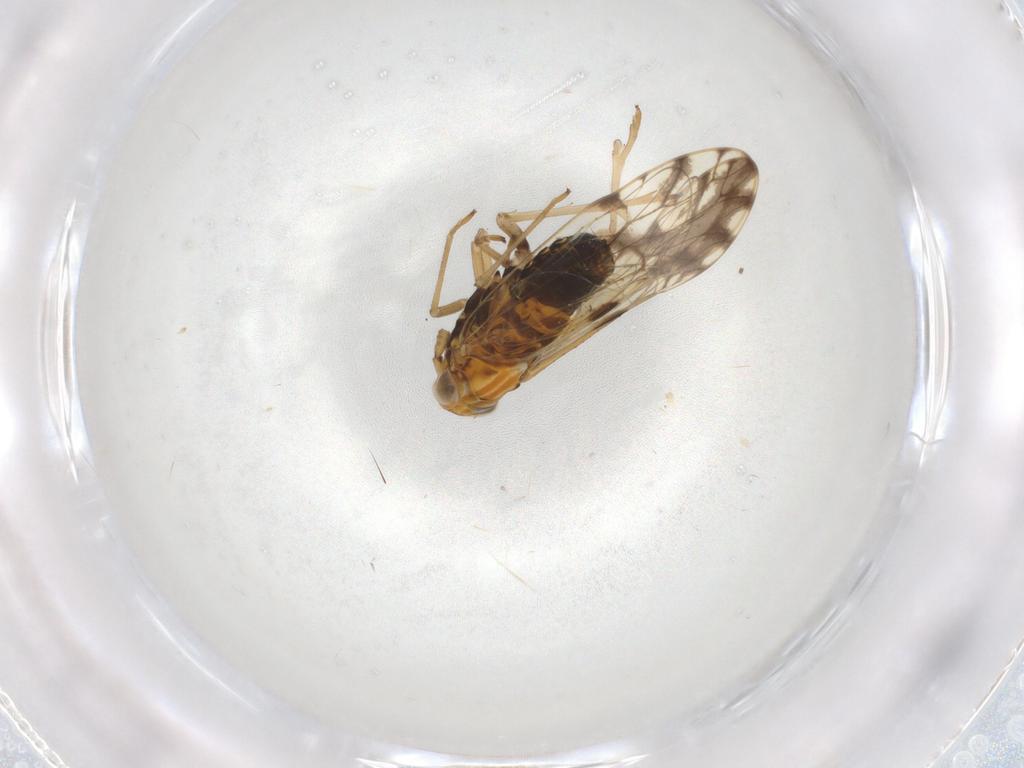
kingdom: Animalia
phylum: Arthropoda
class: Insecta
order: Hemiptera
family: Delphacidae
